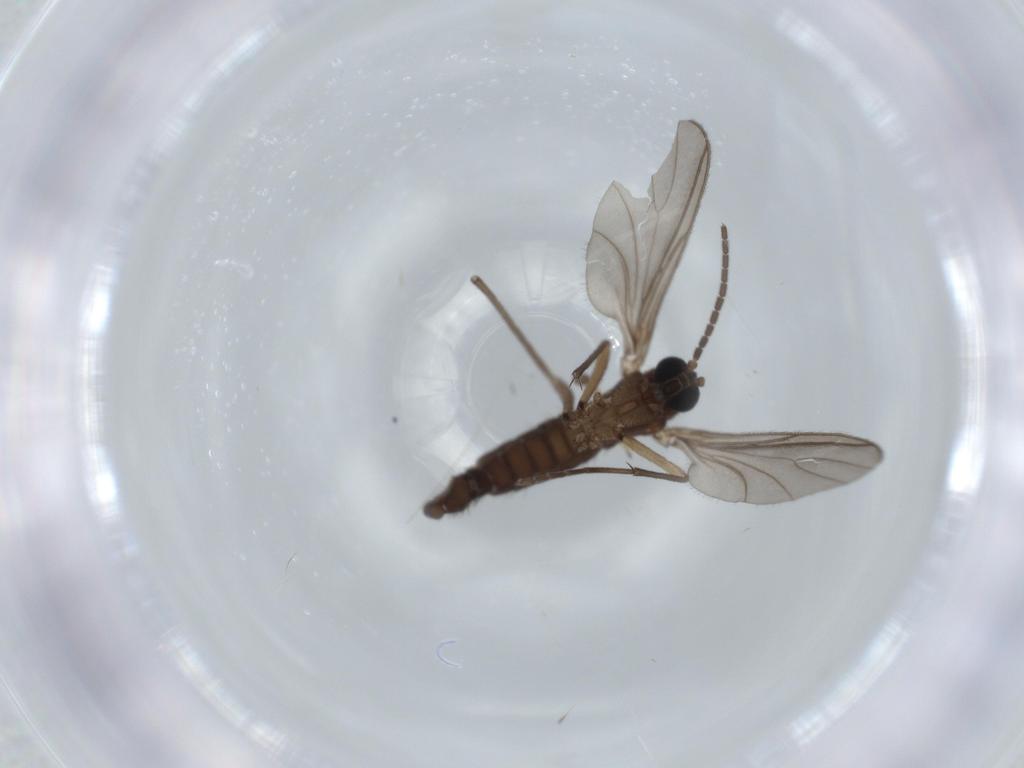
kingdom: Animalia
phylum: Arthropoda
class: Insecta
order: Diptera
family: Sciaridae
